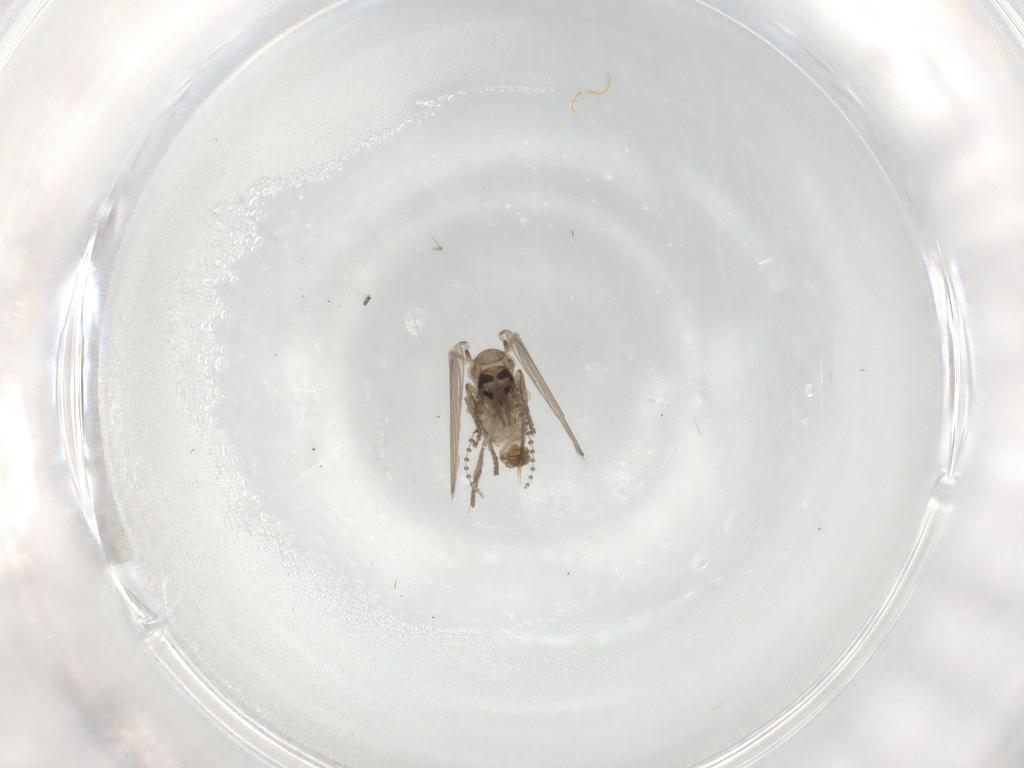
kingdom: Animalia
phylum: Arthropoda
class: Insecta
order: Diptera
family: Psychodidae
